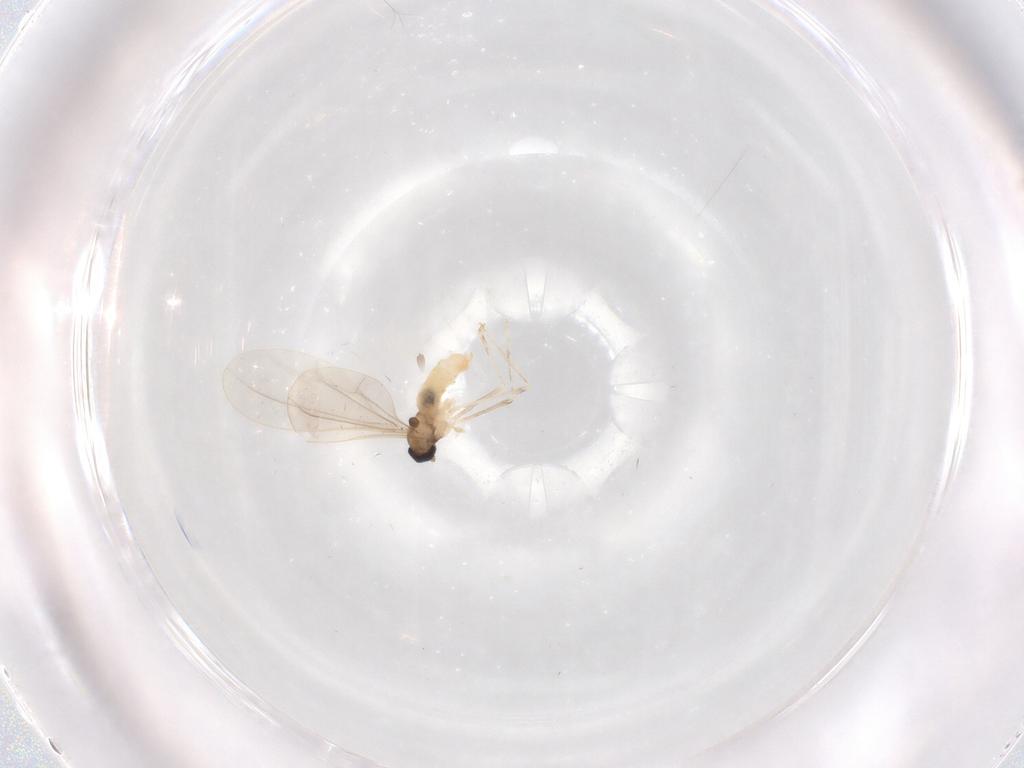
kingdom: Animalia
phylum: Arthropoda
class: Insecta
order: Diptera
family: Cecidomyiidae
